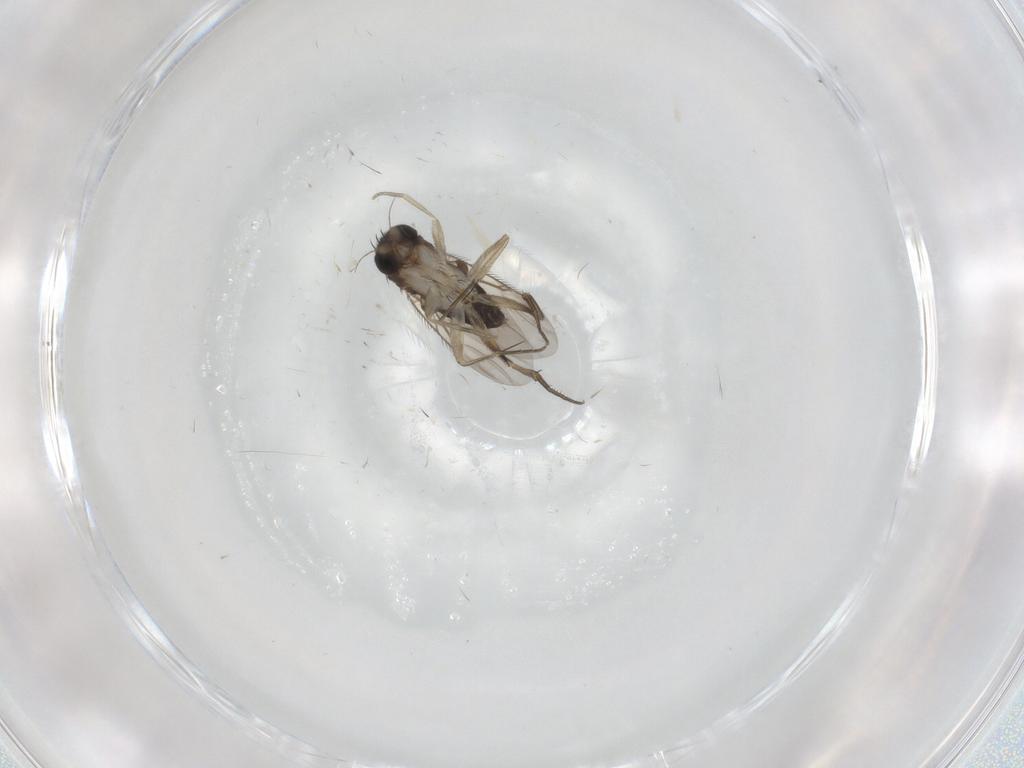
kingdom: Animalia
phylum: Arthropoda
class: Insecta
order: Diptera
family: Phoridae
